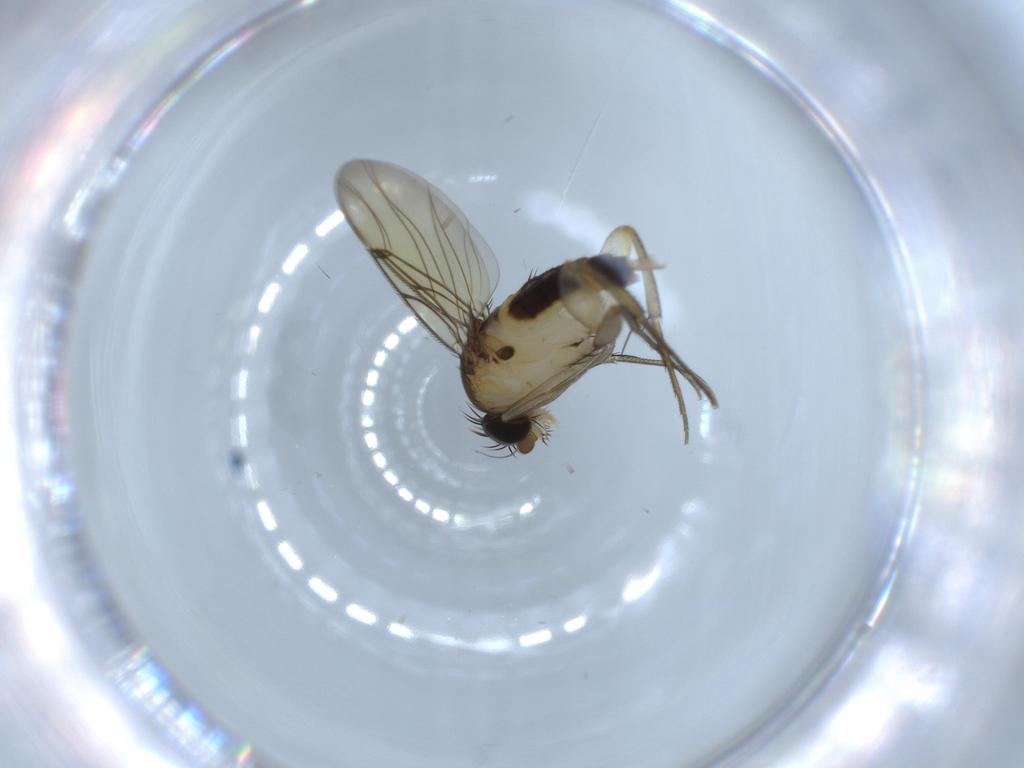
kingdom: Animalia
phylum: Arthropoda
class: Insecta
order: Diptera
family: Phoridae
